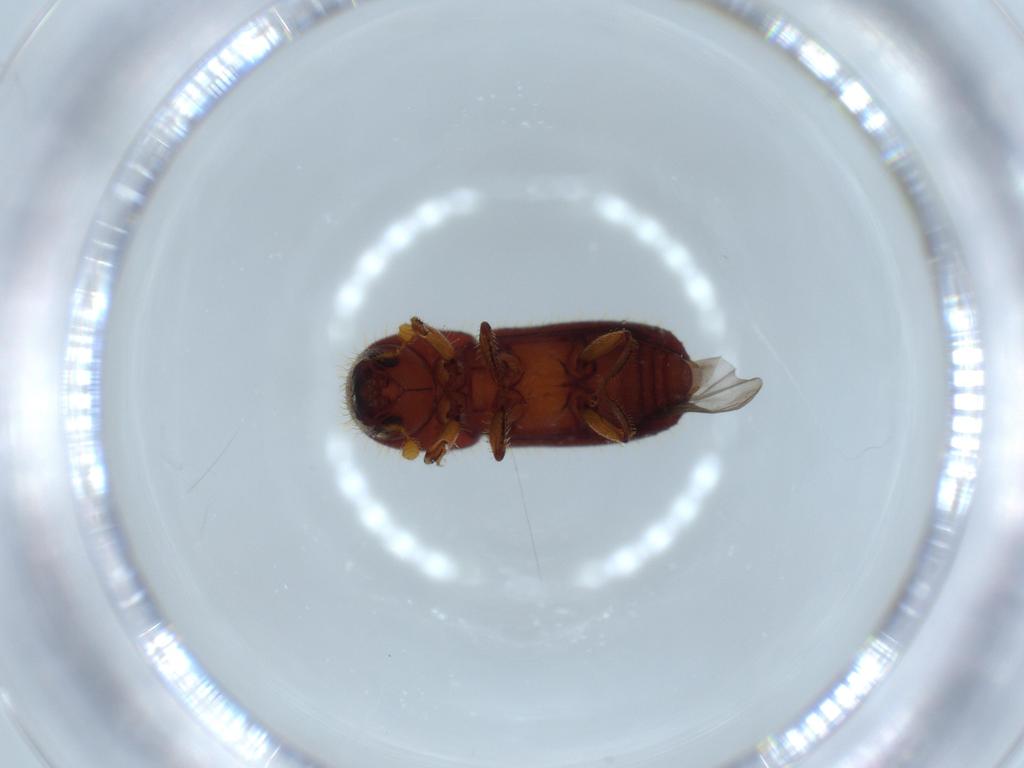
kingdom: Animalia
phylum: Arthropoda
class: Insecta
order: Coleoptera
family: Curculionidae
